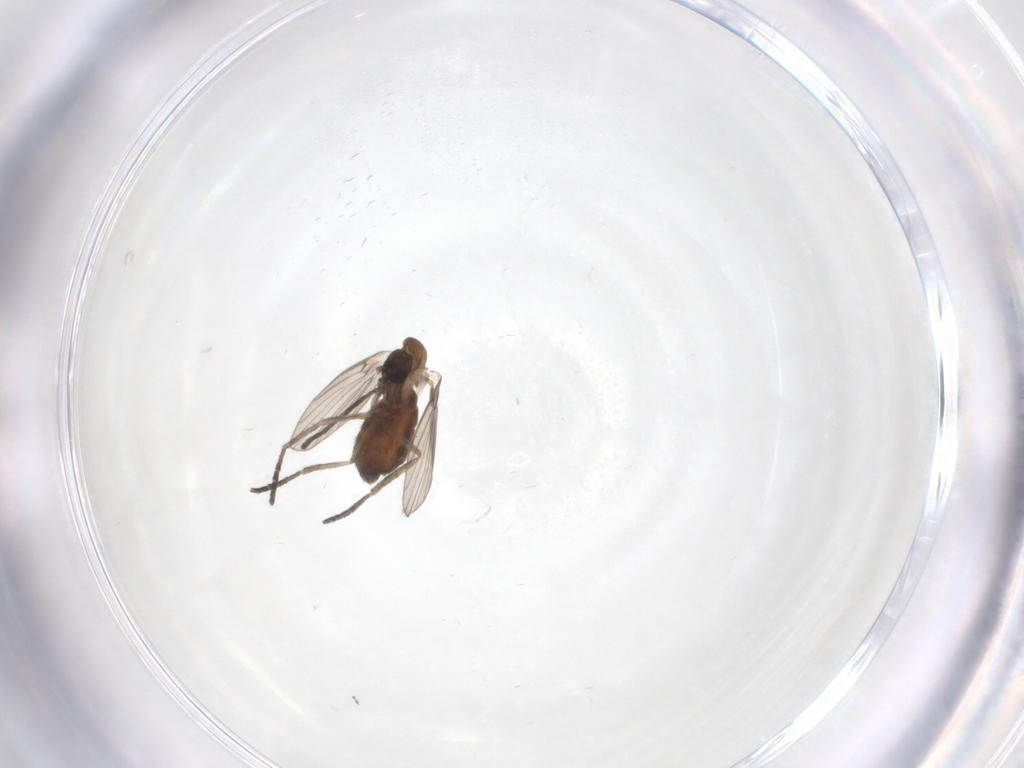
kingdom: Animalia
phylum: Arthropoda
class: Insecta
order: Diptera
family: Psychodidae
